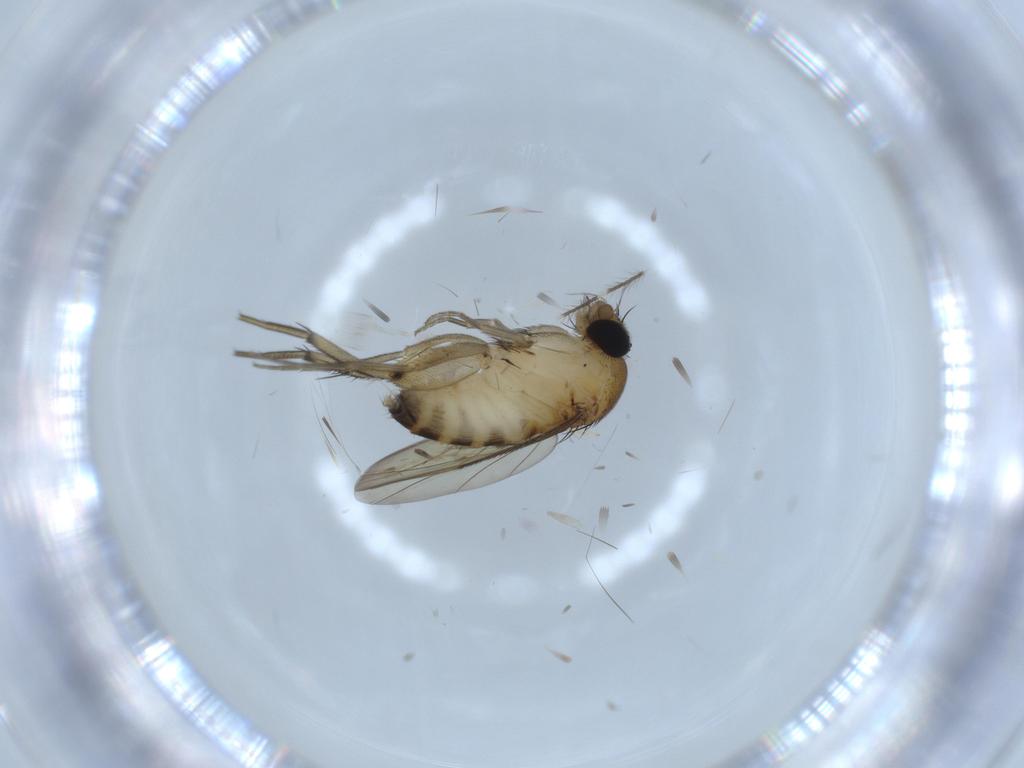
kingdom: Animalia
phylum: Arthropoda
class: Insecta
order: Diptera
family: Phoridae
